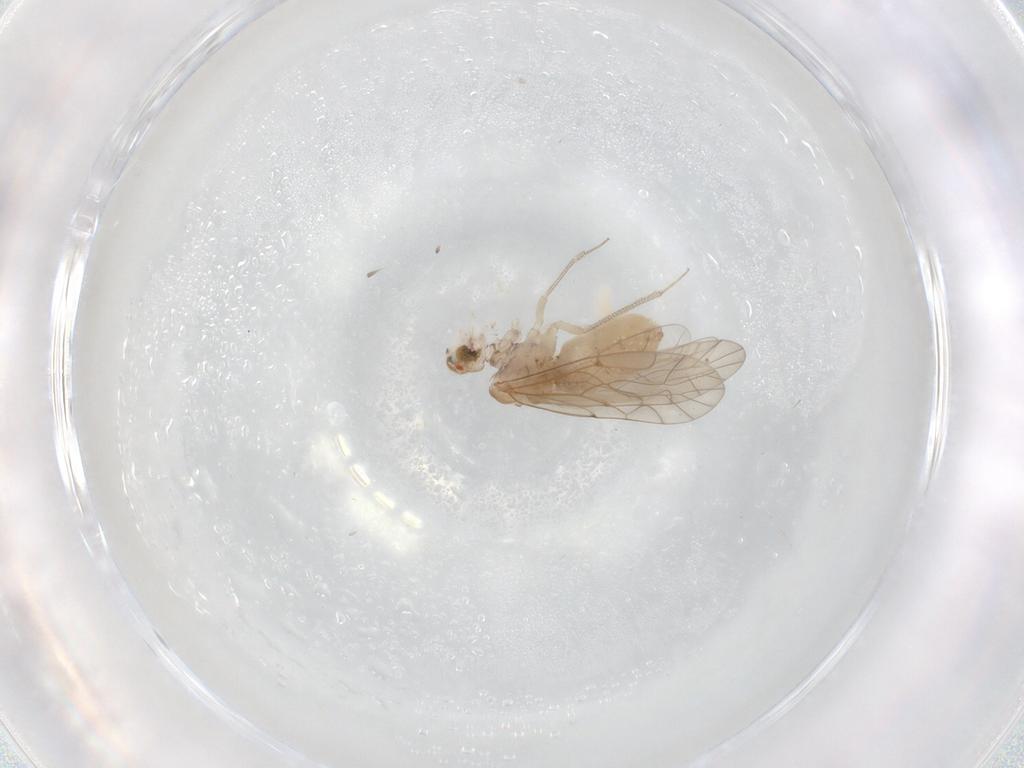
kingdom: Animalia
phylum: Arthropoda
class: Insecta
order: Psocodea
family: Lachesillidae
